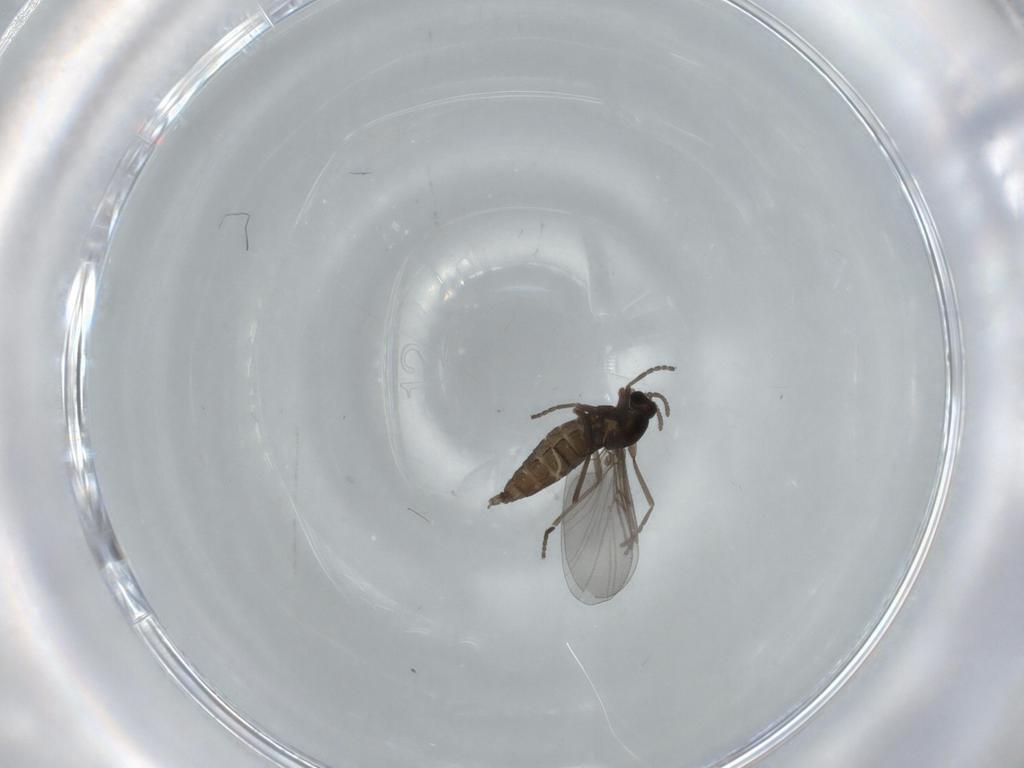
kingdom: Animalia
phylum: Arthropoda
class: Insecta
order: Diptera
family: Cecidomyiidae
